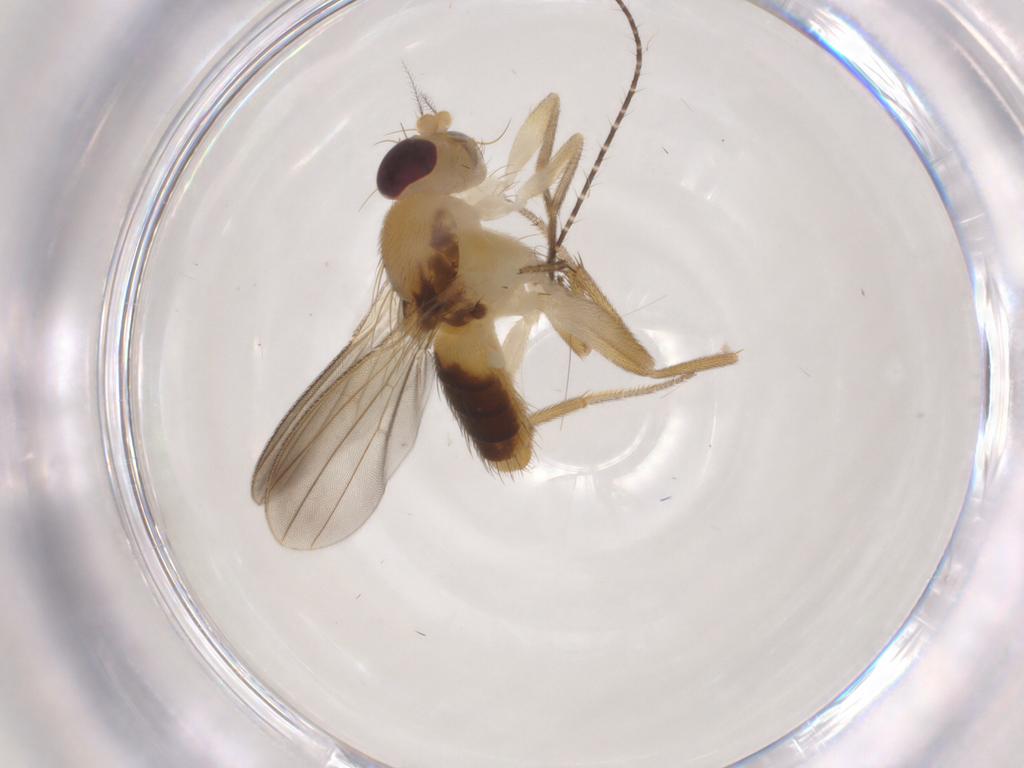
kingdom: Animalia
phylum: Arthropoda
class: Insecta
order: Diptera
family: Agromyzidae
